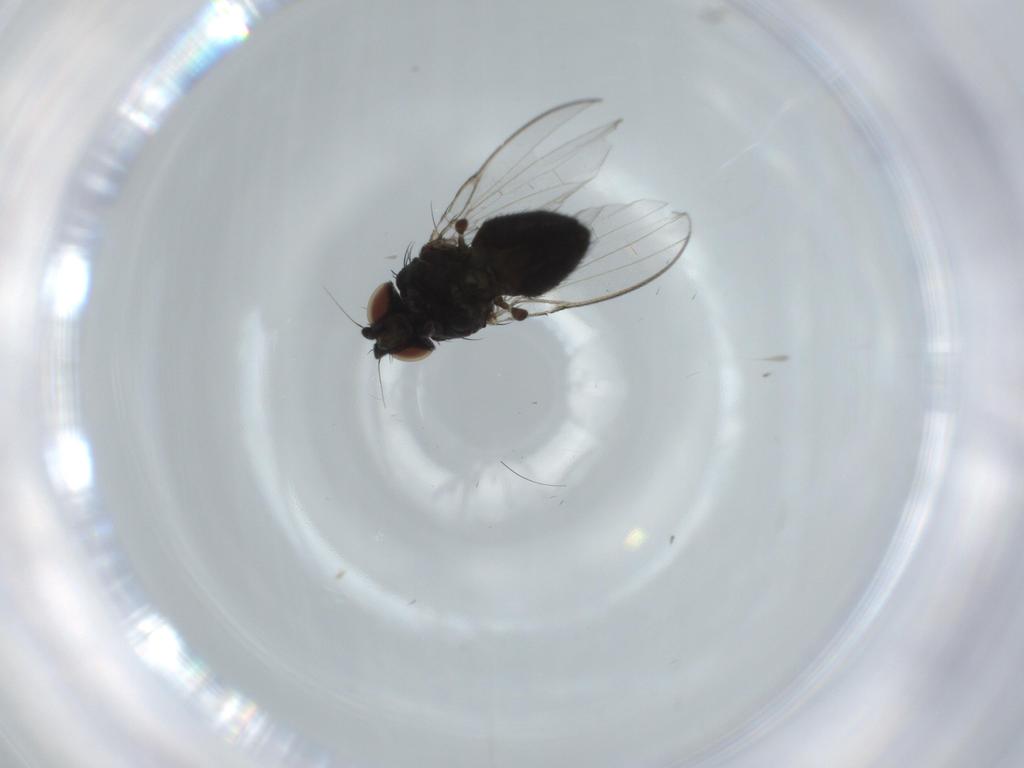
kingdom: Animalia
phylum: Arthropoda
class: Insecta
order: Diptera
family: Milichiidae
